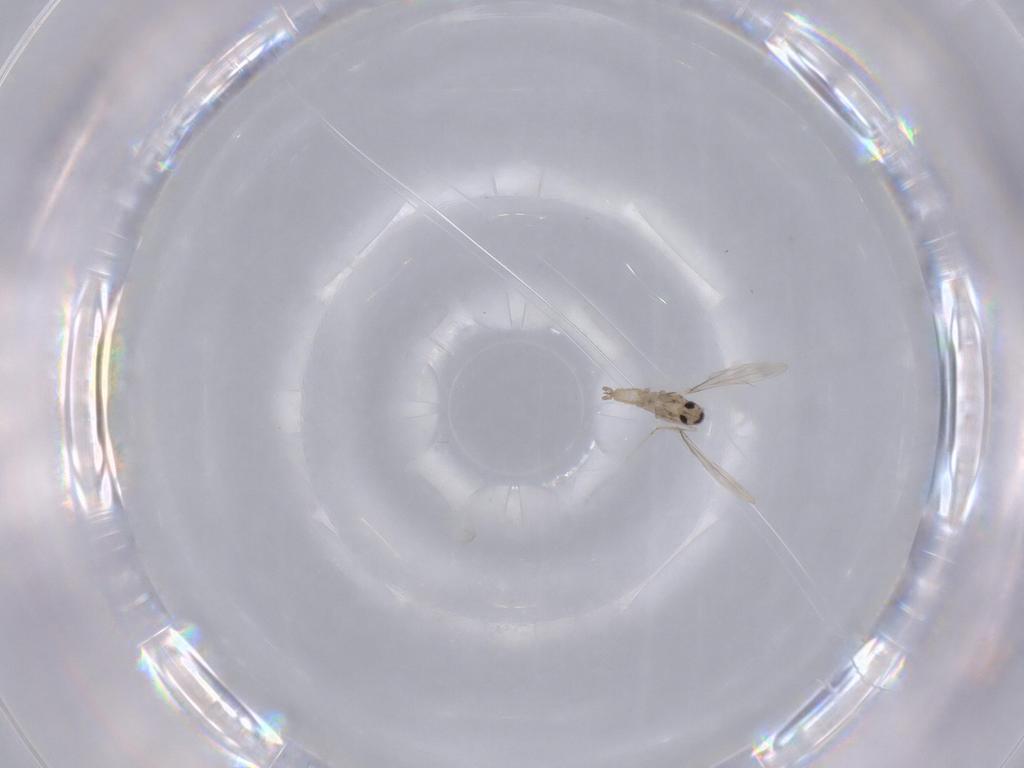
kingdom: Animalia
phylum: Arthropoda
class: Insecta
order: Diptera
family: Cecidomyiidae
